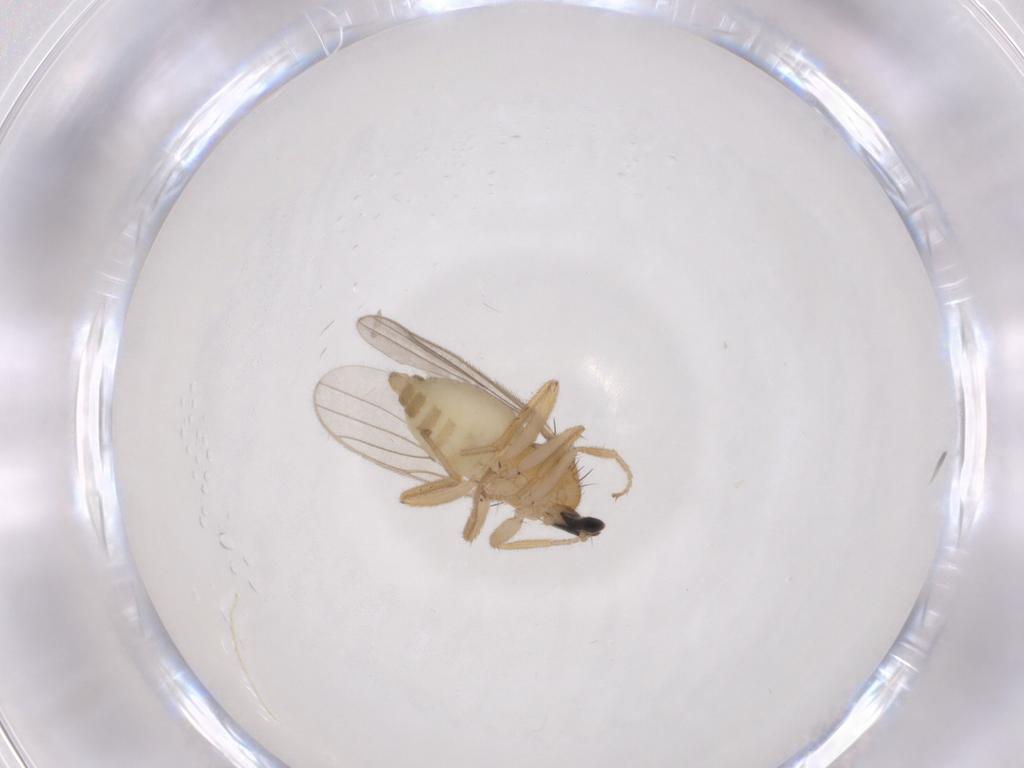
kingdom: Animalia
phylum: Arthropoda
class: Insecta
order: Diptera
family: Hybotidae
